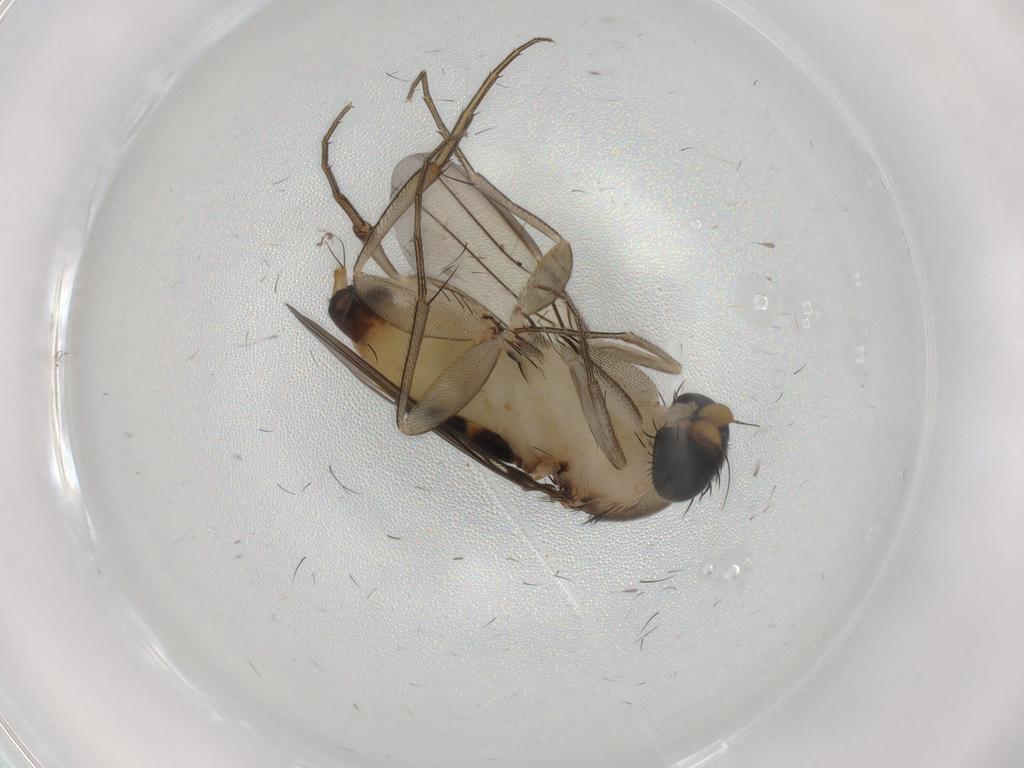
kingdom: Animalia
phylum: Arthropoda
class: Insecta
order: Diptera
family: Phoridae
